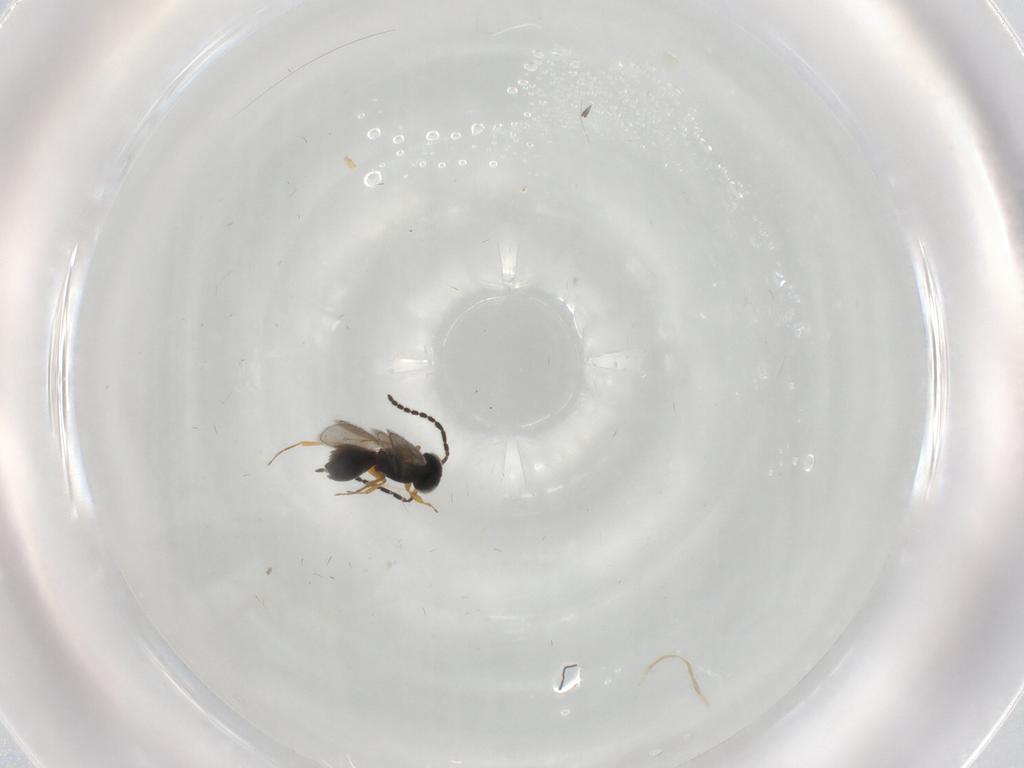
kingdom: Animalia
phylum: Arthropoda
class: Insecta
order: Hymenoptera
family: Scelionidae
